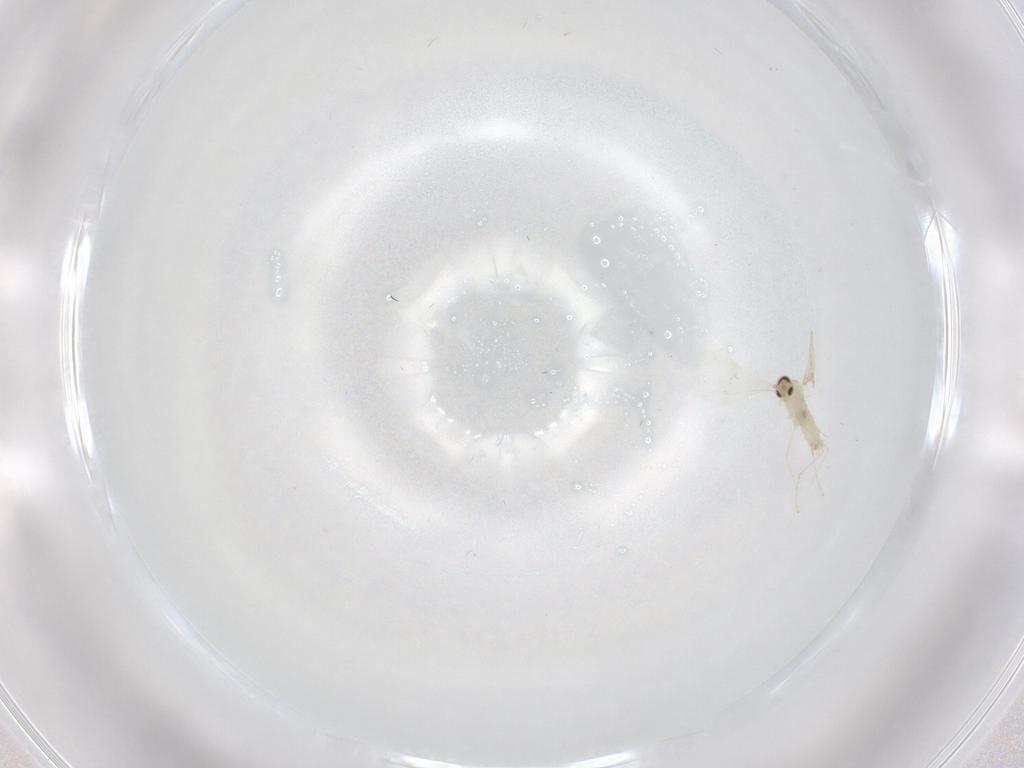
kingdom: Animalia
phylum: Arthropoda
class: Insecta
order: Diptera
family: Cecidomyiidae
